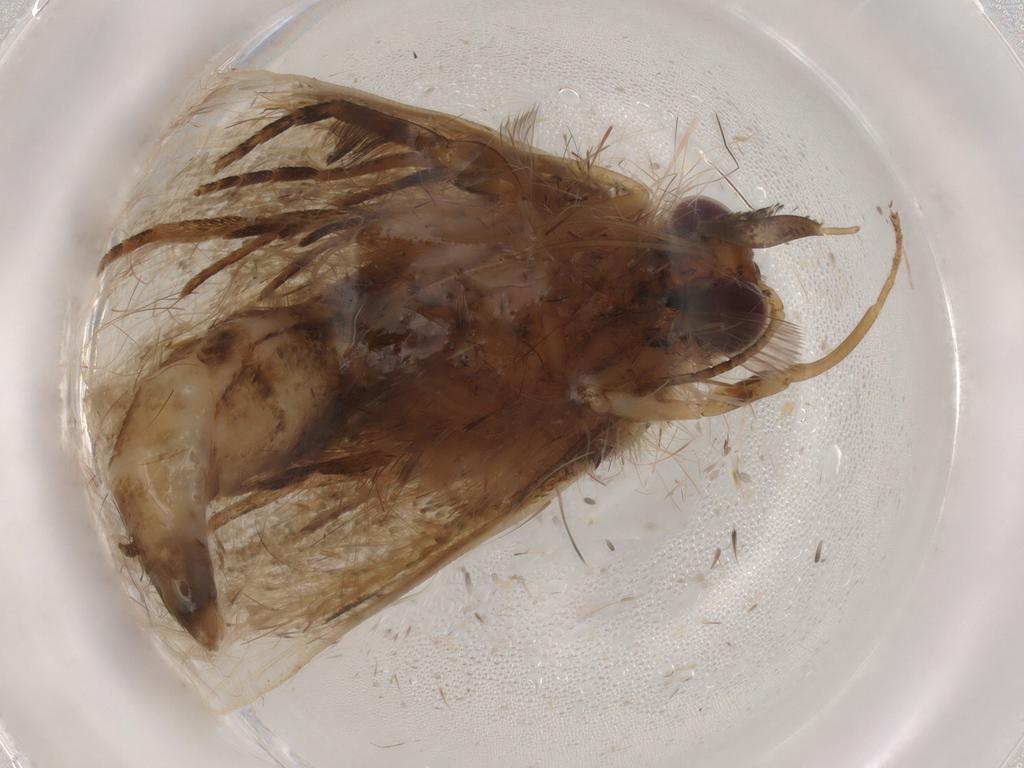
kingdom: Animalia
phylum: Arthropoda
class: Insecta
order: Lepidoptera
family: Erebidae
